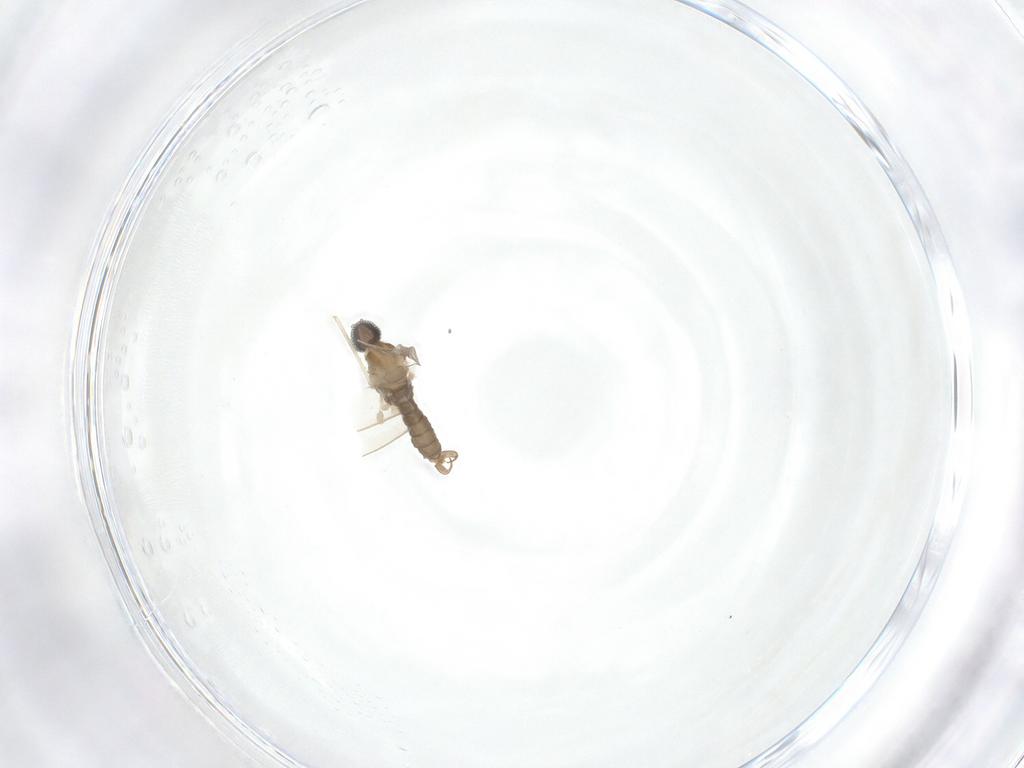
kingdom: Animalia
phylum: Arthropoda
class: Insecta
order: Diptera
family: Cecidomyiidae
